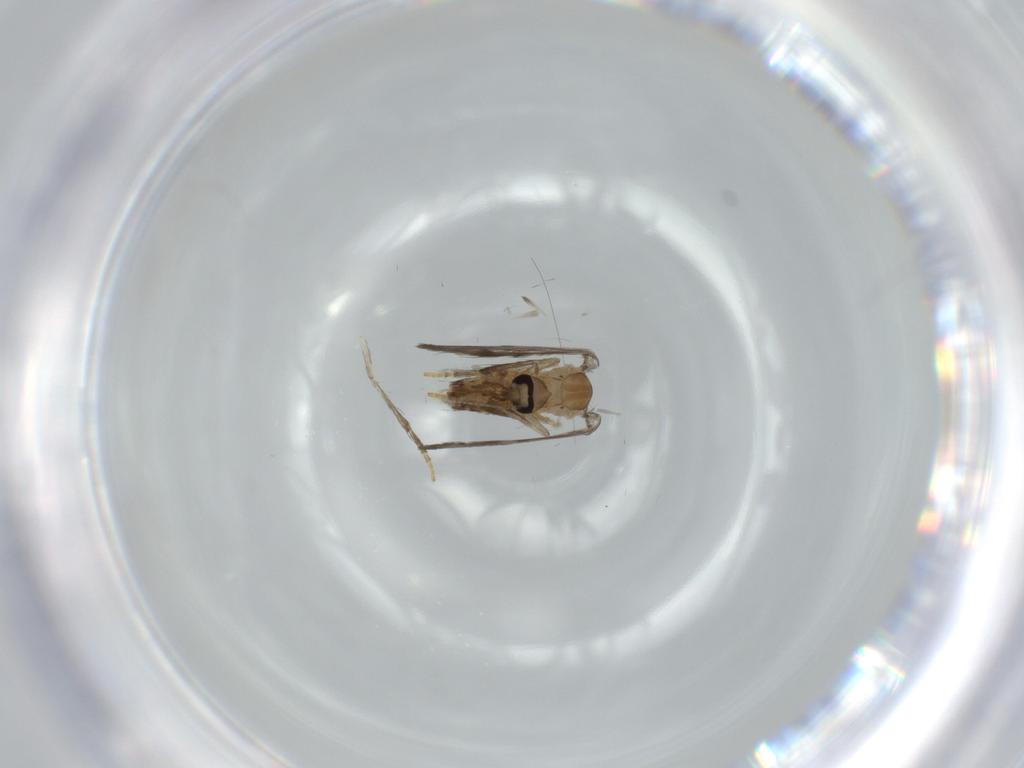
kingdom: Animalia
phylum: Arthropoda
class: Insecta
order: Diptera
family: Psychodidae
